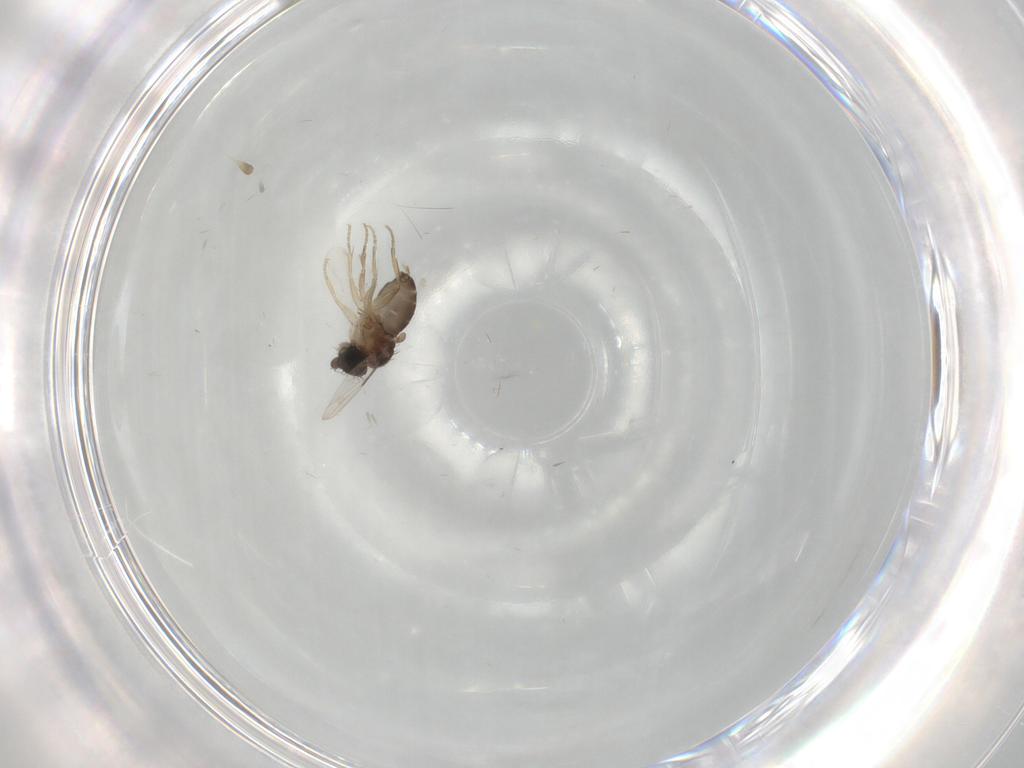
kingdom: Animalia
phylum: Arthropoda
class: Insecta
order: Diptera
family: Phoridae
